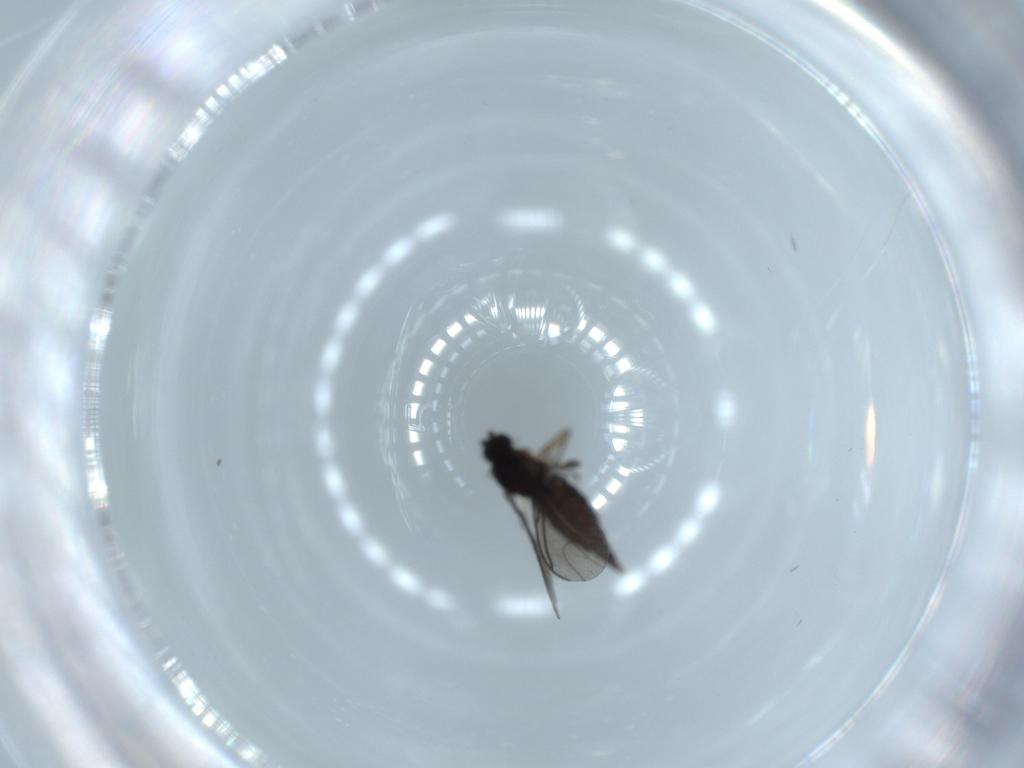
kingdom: Animalia
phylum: Arthropoda
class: Insecta
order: Diptera
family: Sciaridae
